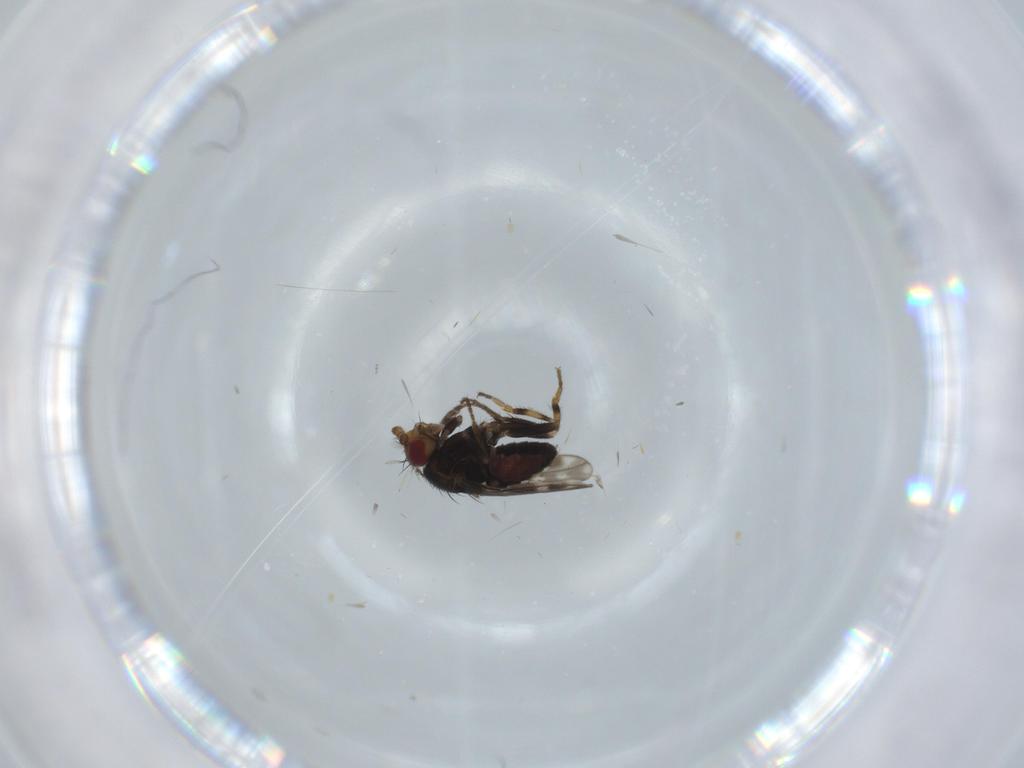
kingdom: Animalia
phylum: Arthropoda
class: Insecta
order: Diptera
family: Sphaeroceridae
